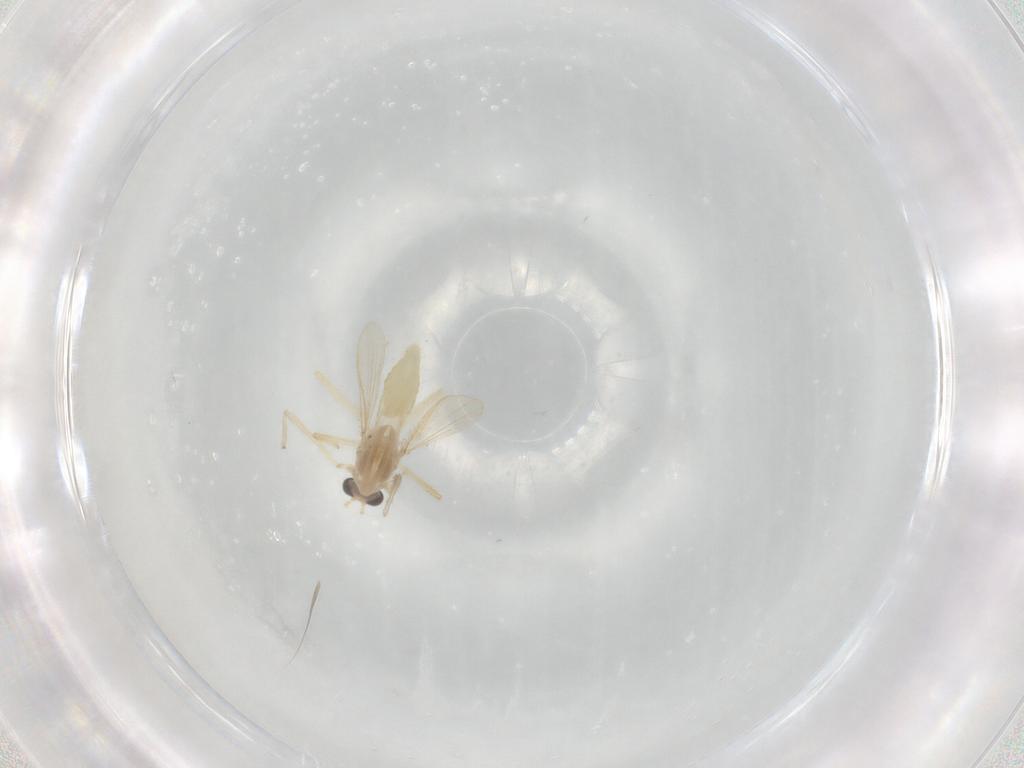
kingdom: Animalia
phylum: Arthropoda
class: Insecta
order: Diptera
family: Chironomidae
